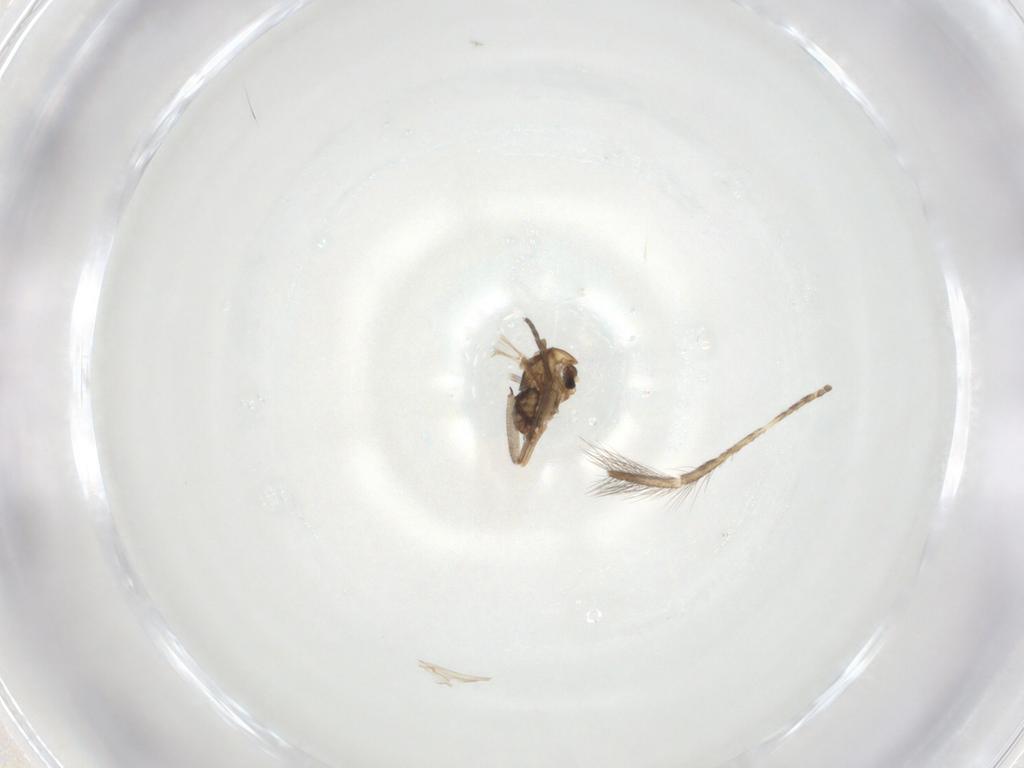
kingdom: Animalia
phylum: Arthropoda
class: Insecta
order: Diptera
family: Chironomidae
